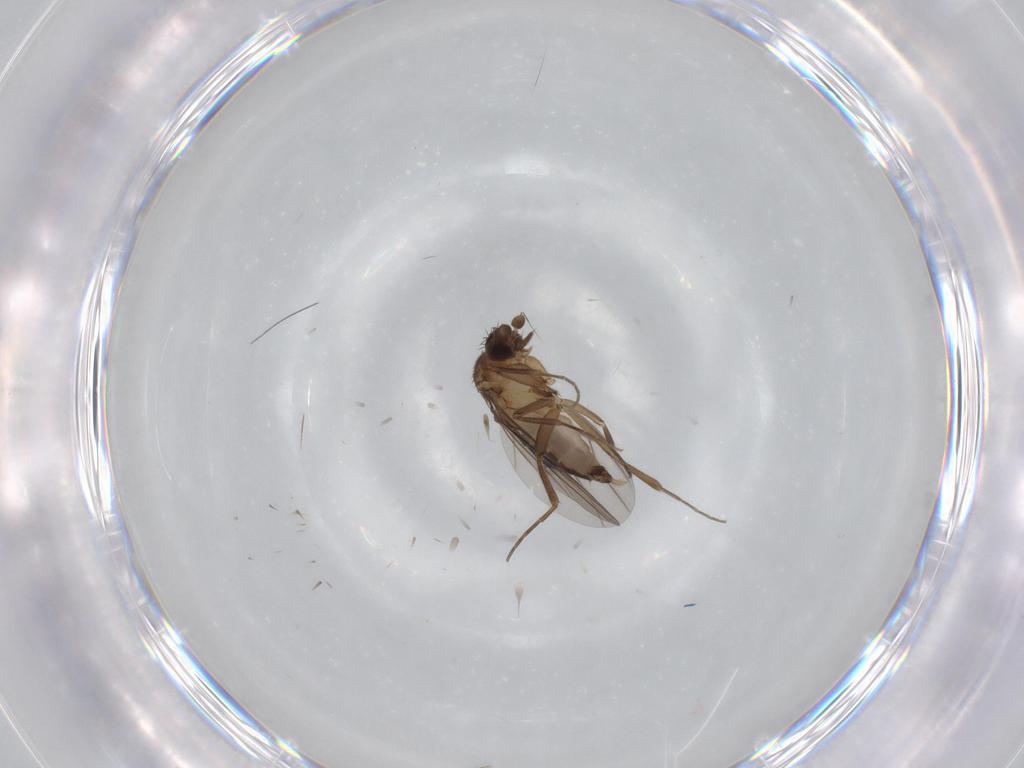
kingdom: Animalia
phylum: Arthropoda
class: Insecta
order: Diptera
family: Phoridae
